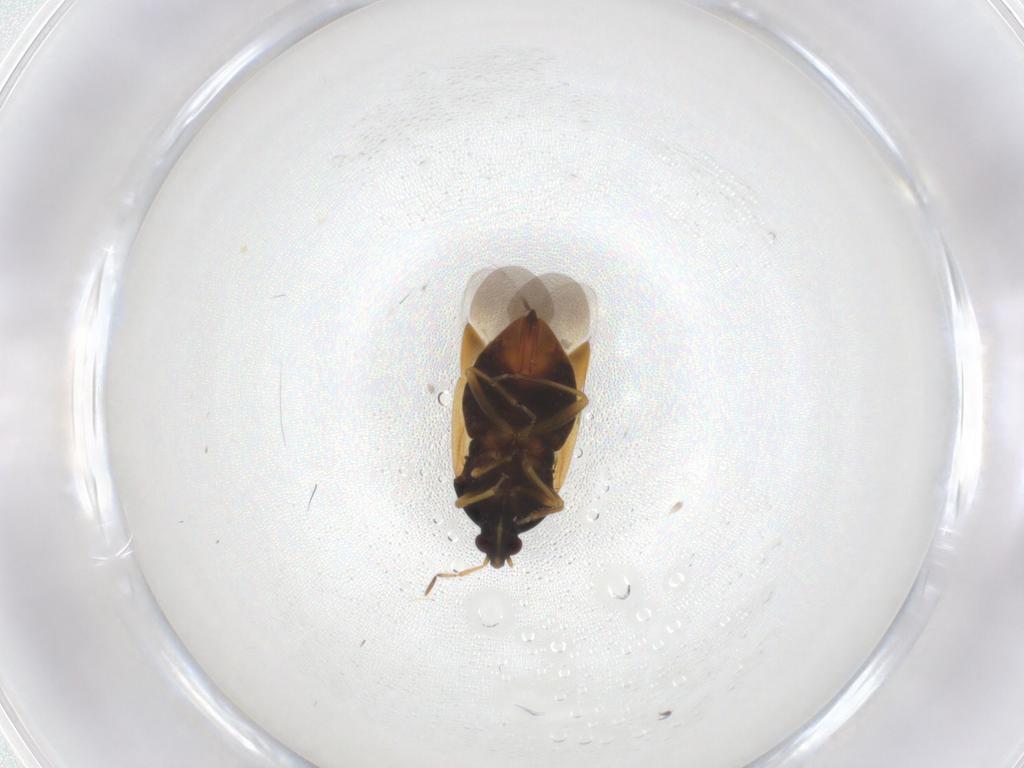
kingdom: Animalia
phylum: Arthropoda
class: Insecta
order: Hemiptera
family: Anthocoridae
